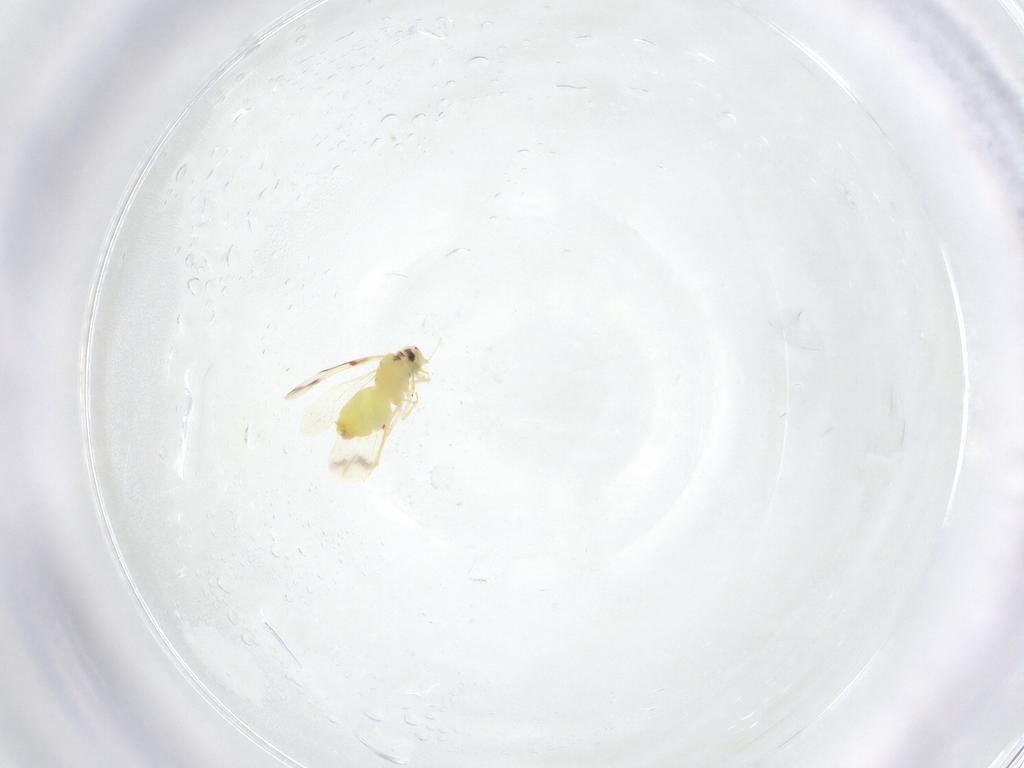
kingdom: Animalia
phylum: Arthropoda
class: Insecta
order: Hemiptera
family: Acanaloniidae
